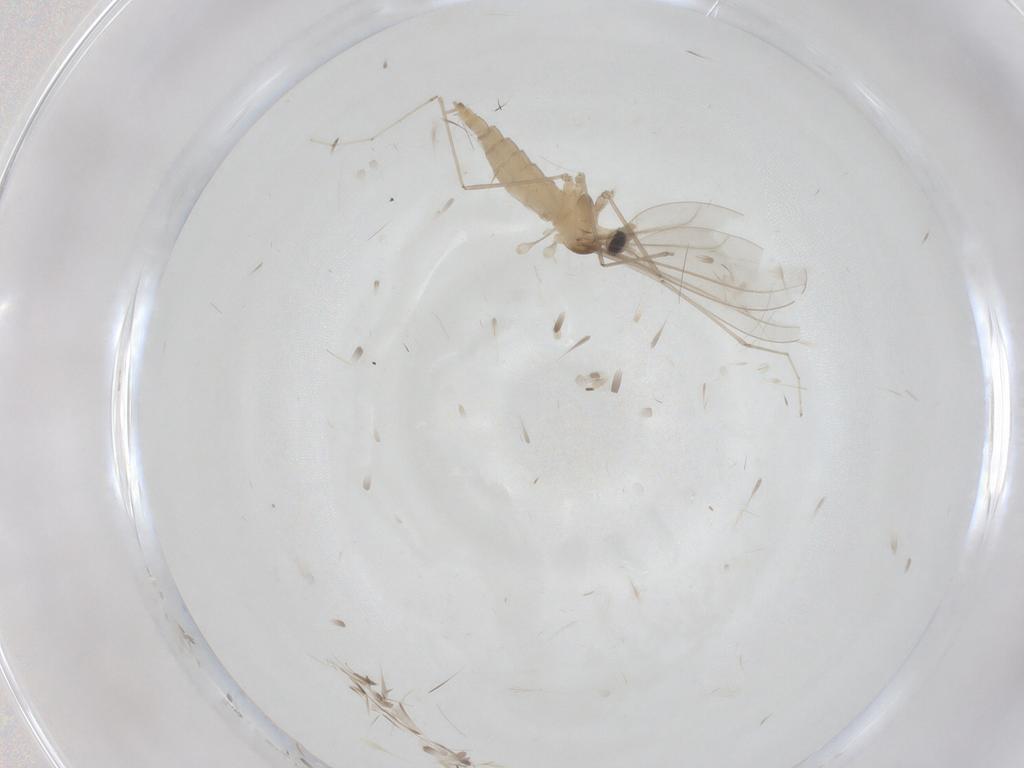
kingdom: Animalia
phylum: Arthropoda
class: Insecta
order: Diptera
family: Cecidomyiidae
